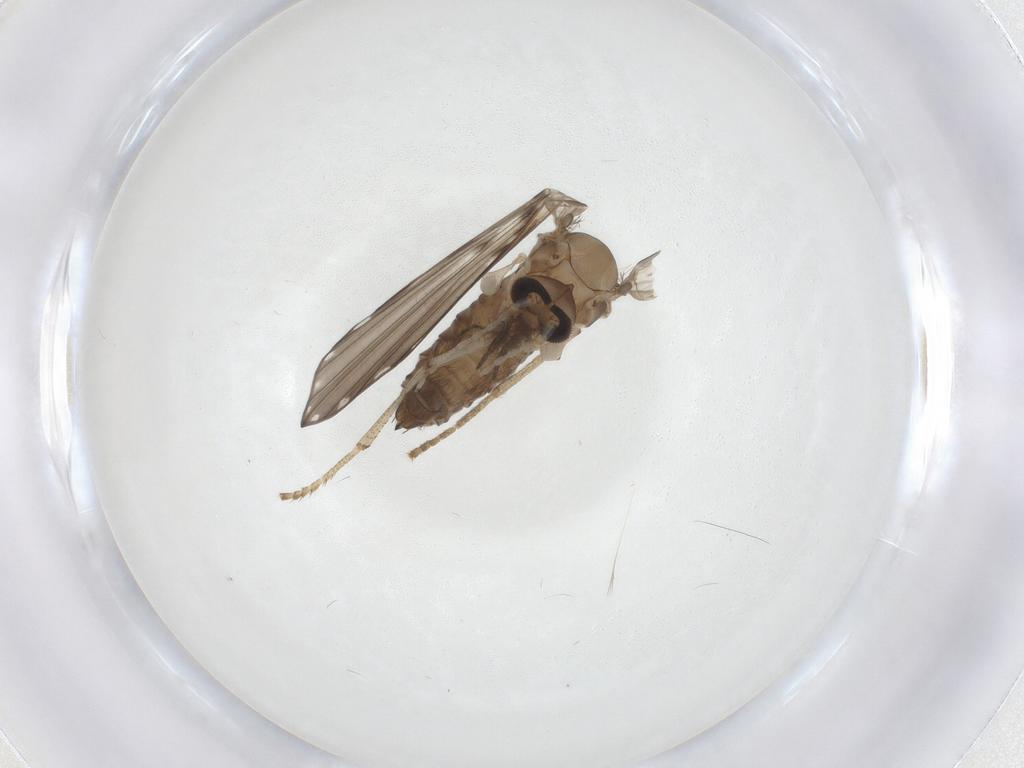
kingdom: Animalia
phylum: Arthropoda
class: Insecta
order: Diptera
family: Psychodidae
